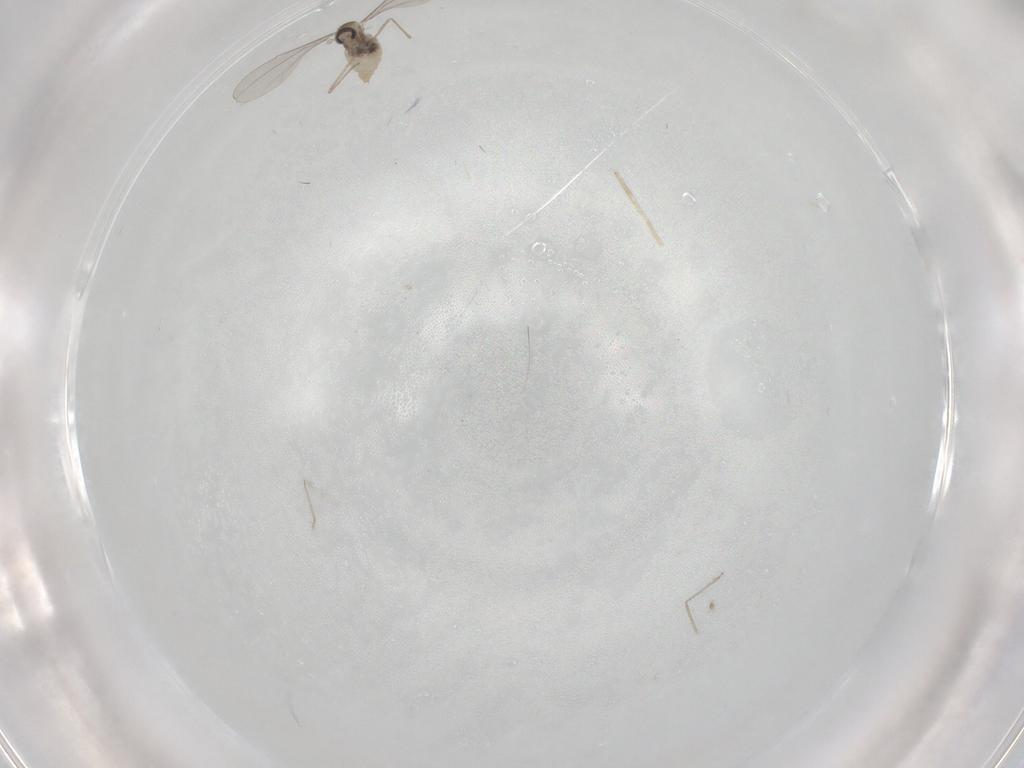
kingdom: Animalia
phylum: Arthropoda
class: Insecta
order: Diptera
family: Cecidomyiidae
